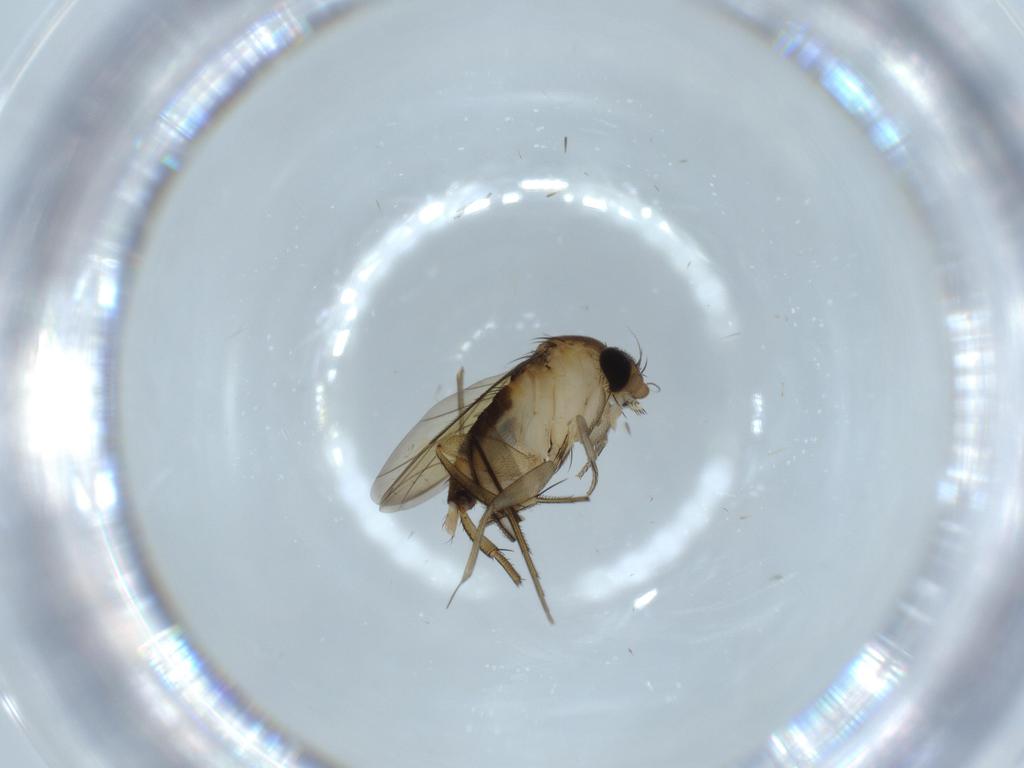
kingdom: Animalia
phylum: Arthropoda
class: Insecta
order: Diptera
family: Sciaridae
